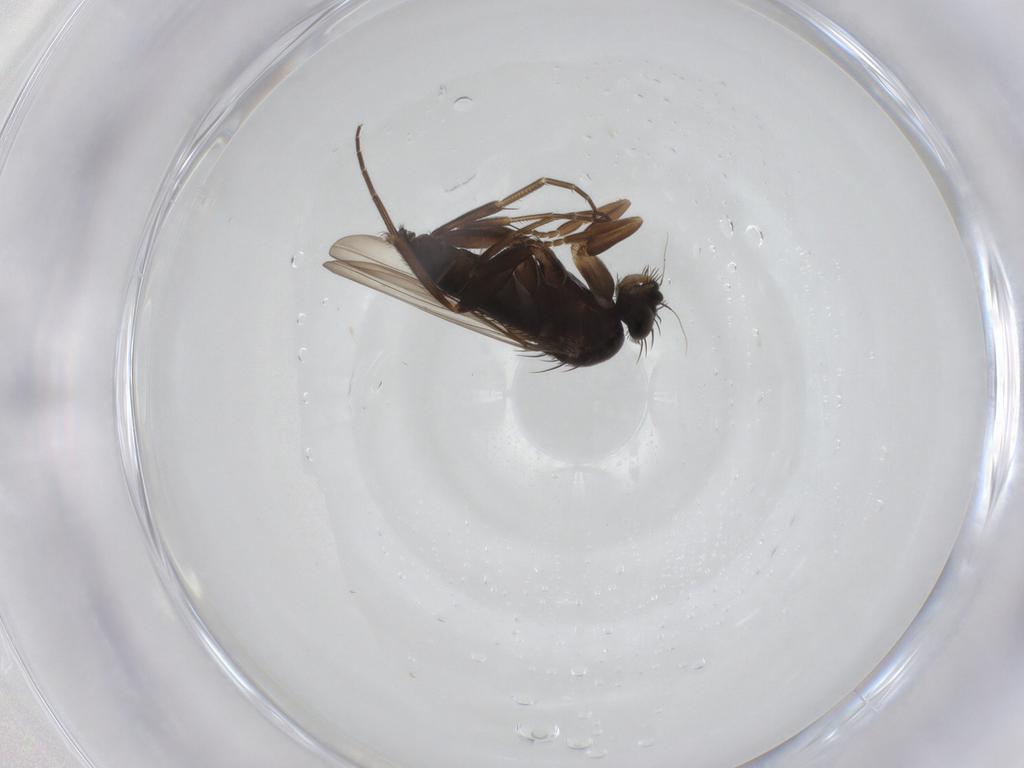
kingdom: Animalia
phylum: Arthropoda
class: Insecta
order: Diptera
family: Phoridae
